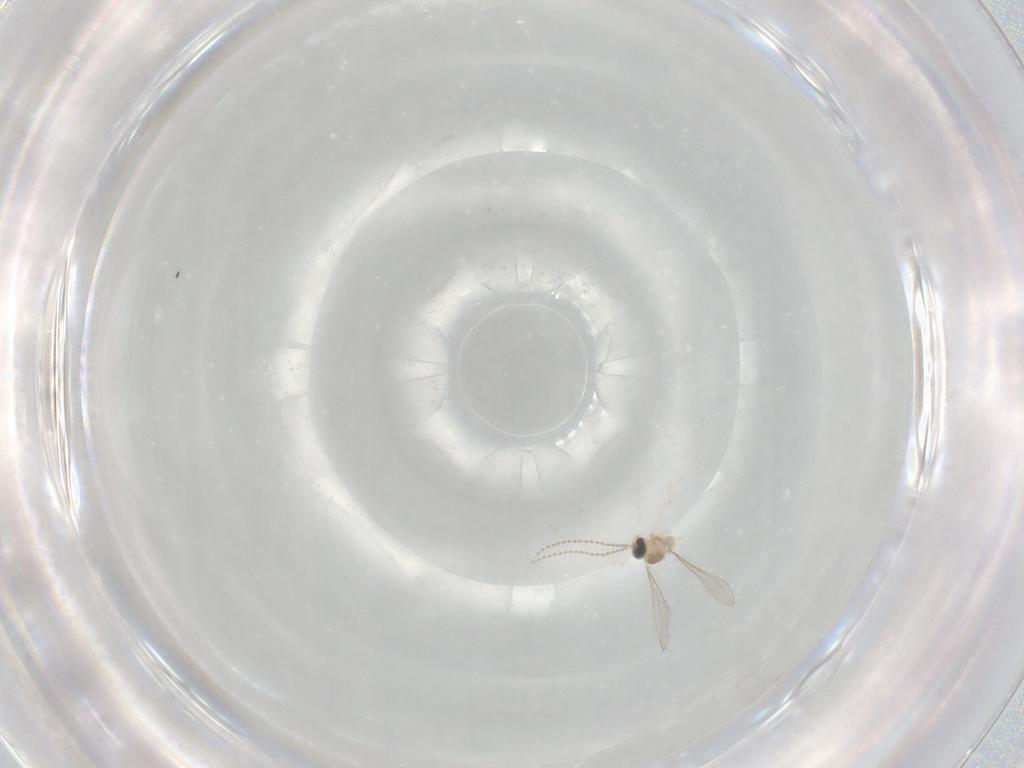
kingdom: Animalia
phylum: Arthropoda
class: Insecta
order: Diptera
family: Cecidomyiidae
